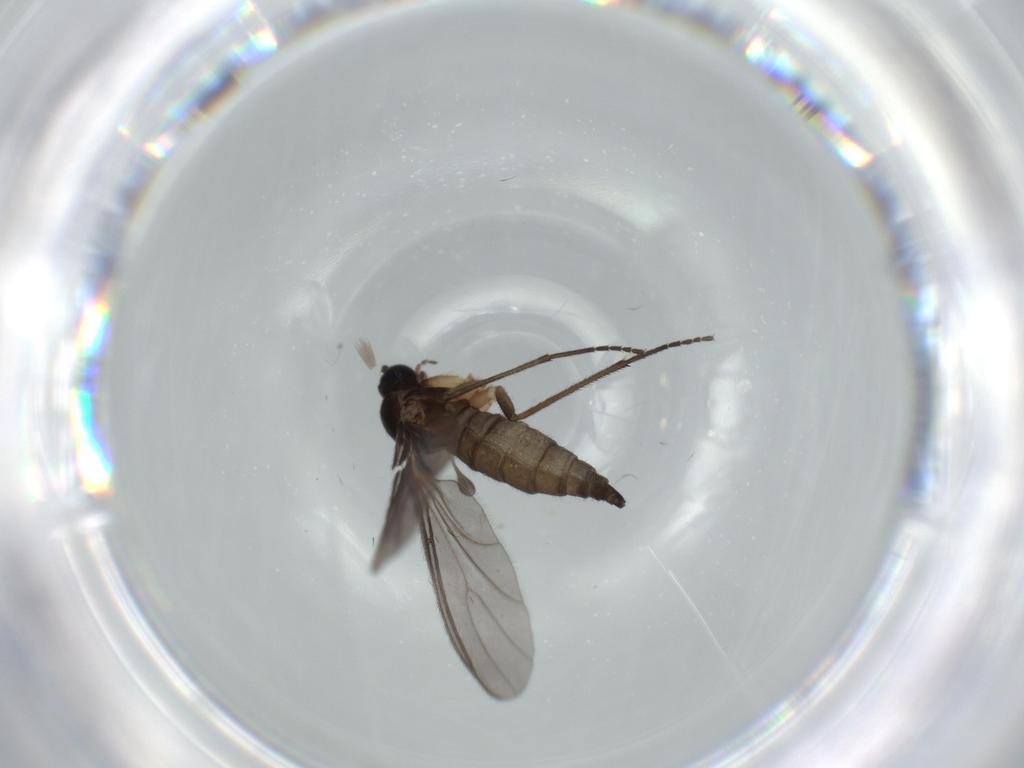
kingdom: Animalia
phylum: Arthropoda
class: Insecta
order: Diptera
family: Sciaridae
